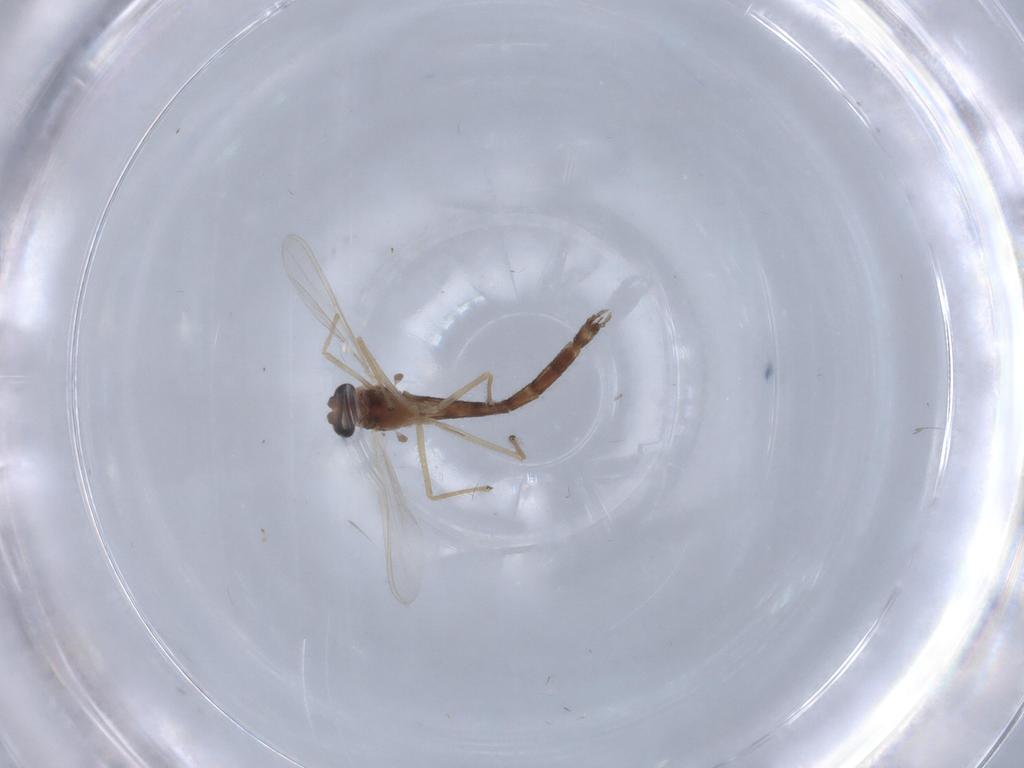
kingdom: Animalia
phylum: Arthropoda
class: Insecta
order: Diptera
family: Chironomidae
